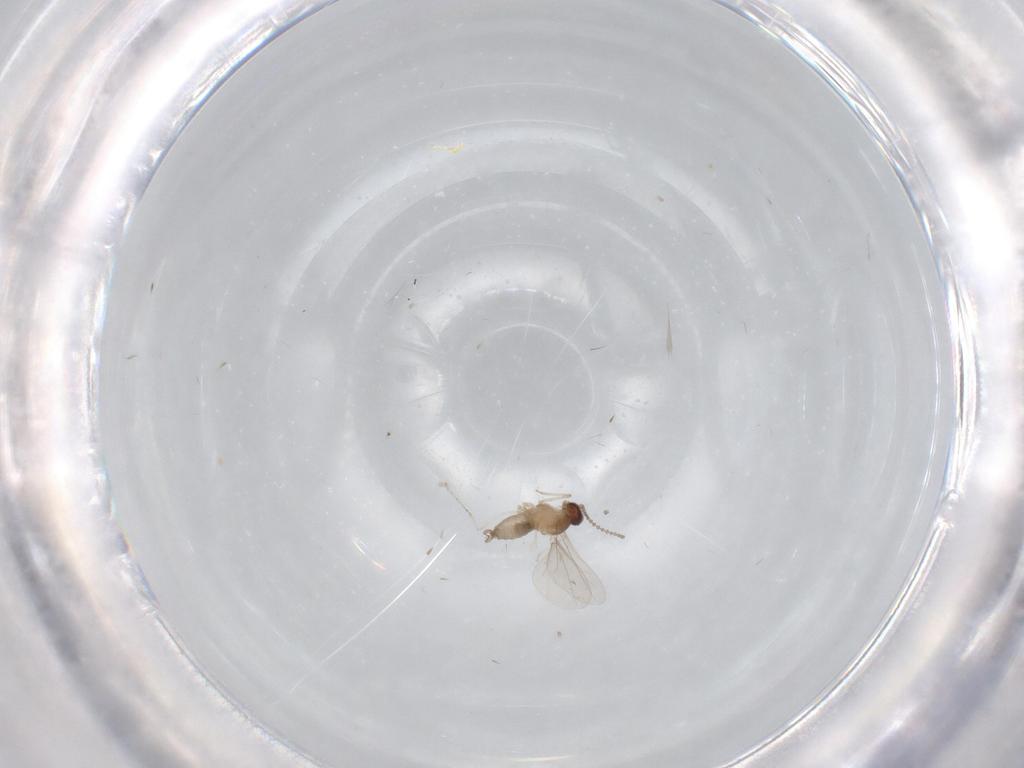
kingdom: Animalia
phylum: Arthropoda
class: Insecta
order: Diptera
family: Cecidomyiidae
